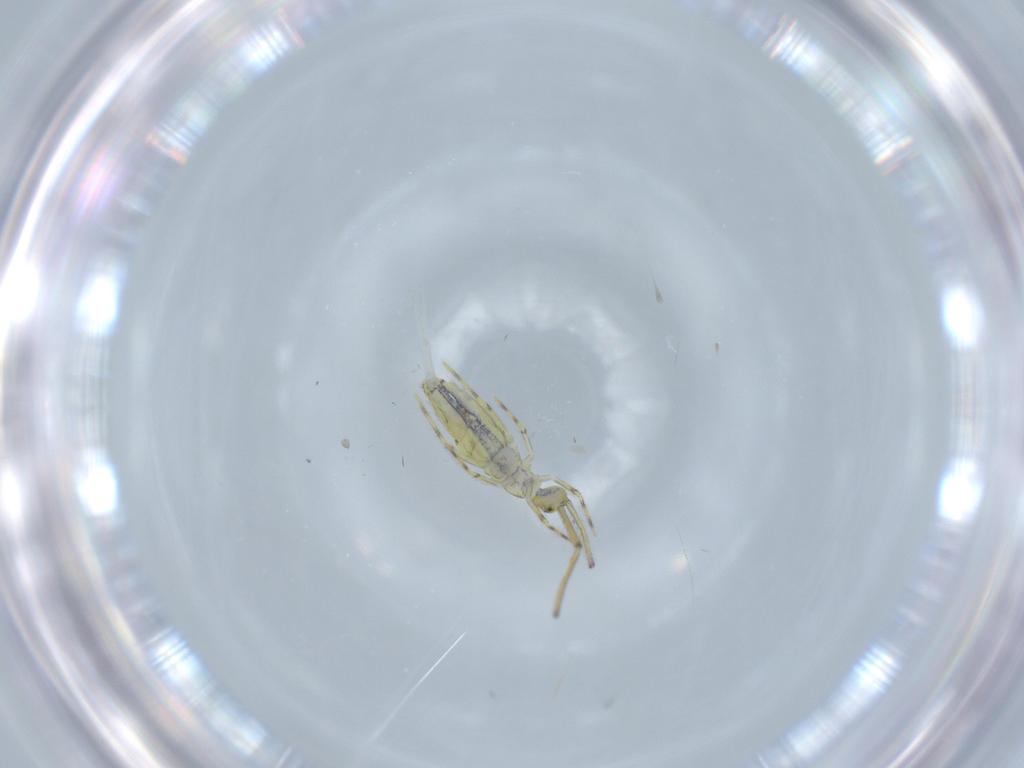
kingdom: Animalia
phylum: Arthropoda
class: Collembola
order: Entomobryomorpha
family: Paronellidae
